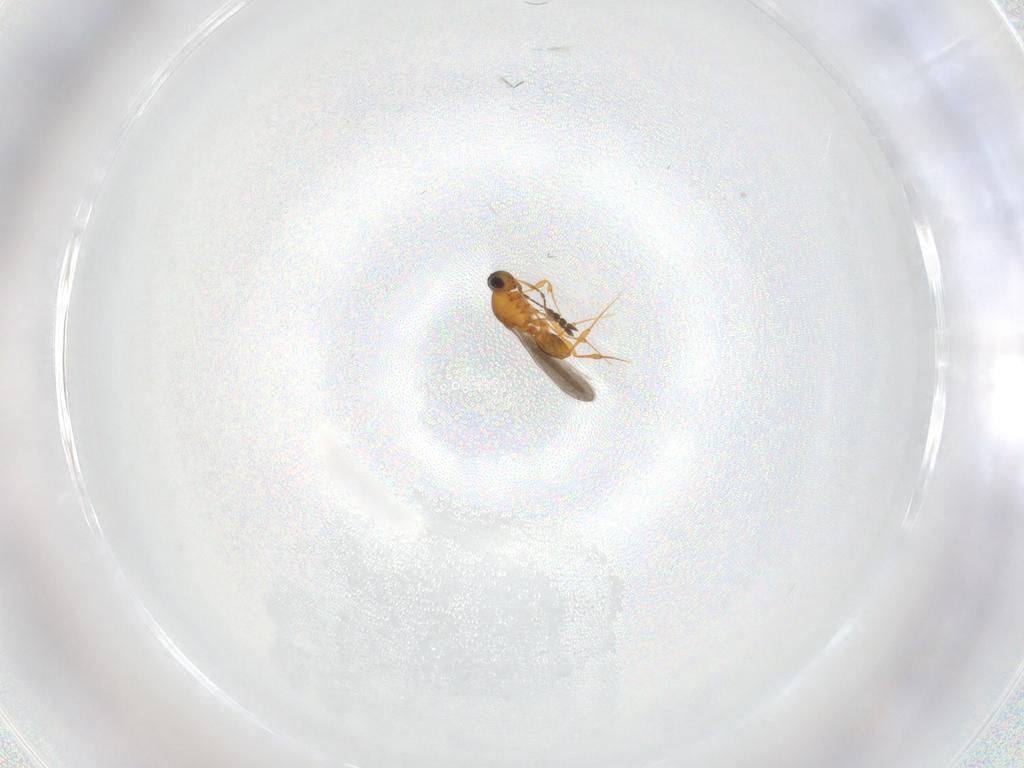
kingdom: Animalia
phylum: Arthropoda
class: Insecta
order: Hymenoptera
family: Platygastridae
